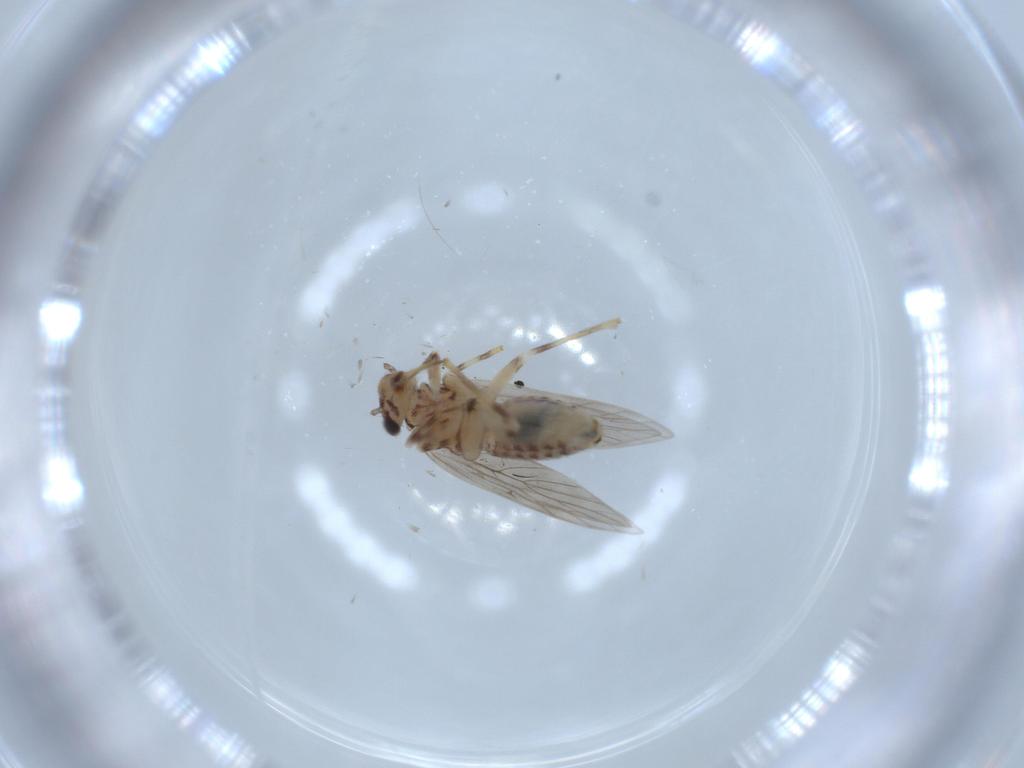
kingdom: Animalia
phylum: Arthropoda
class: Insecta
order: Psocodea
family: Lepidopsocidae
